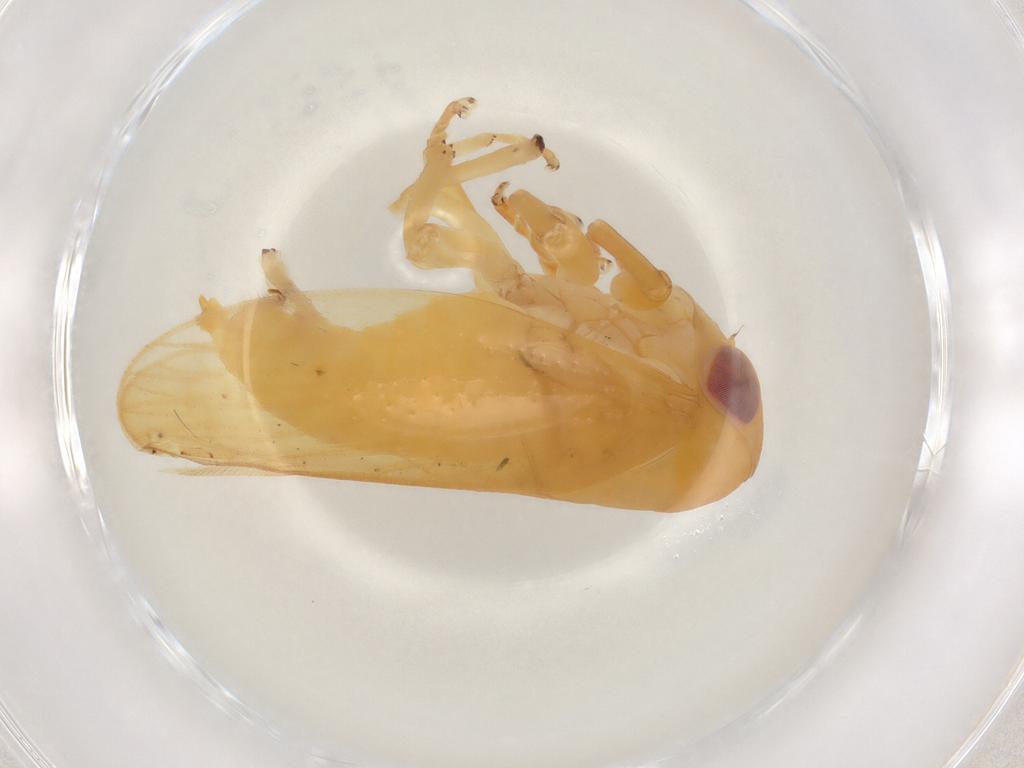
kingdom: Animalia
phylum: Arthropoda
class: Insecta
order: Hemiptera
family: Cicadellidae
